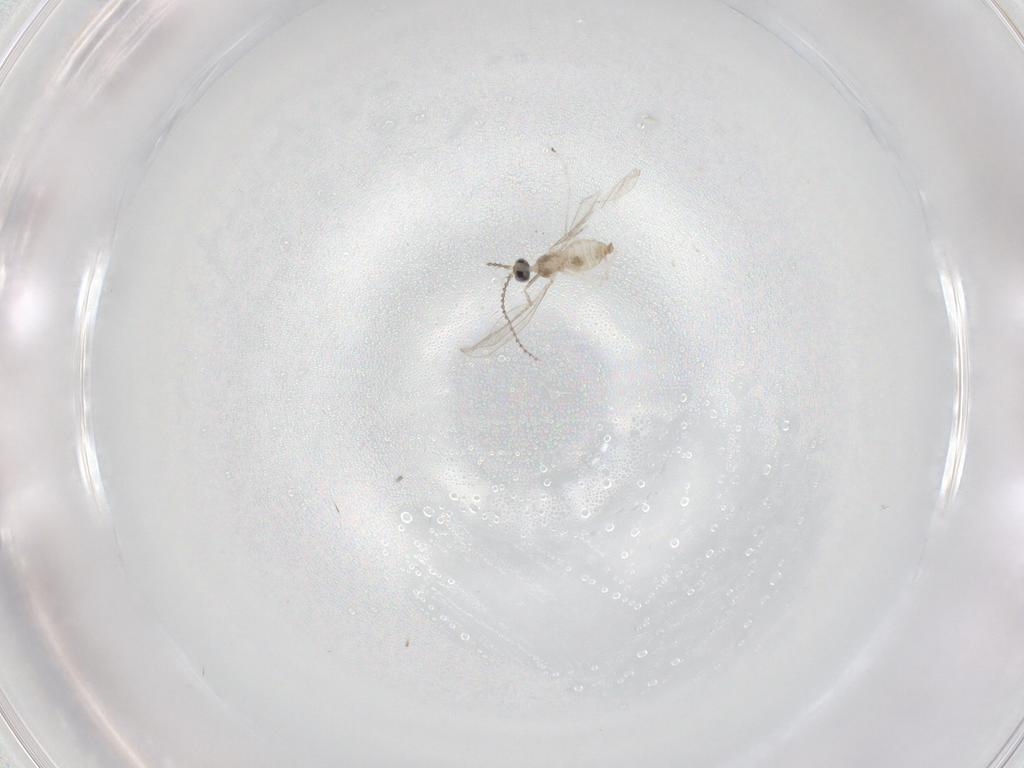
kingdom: Animalia
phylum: Arthropoda
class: Insecta
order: Diptera
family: Cecidomyiidae
